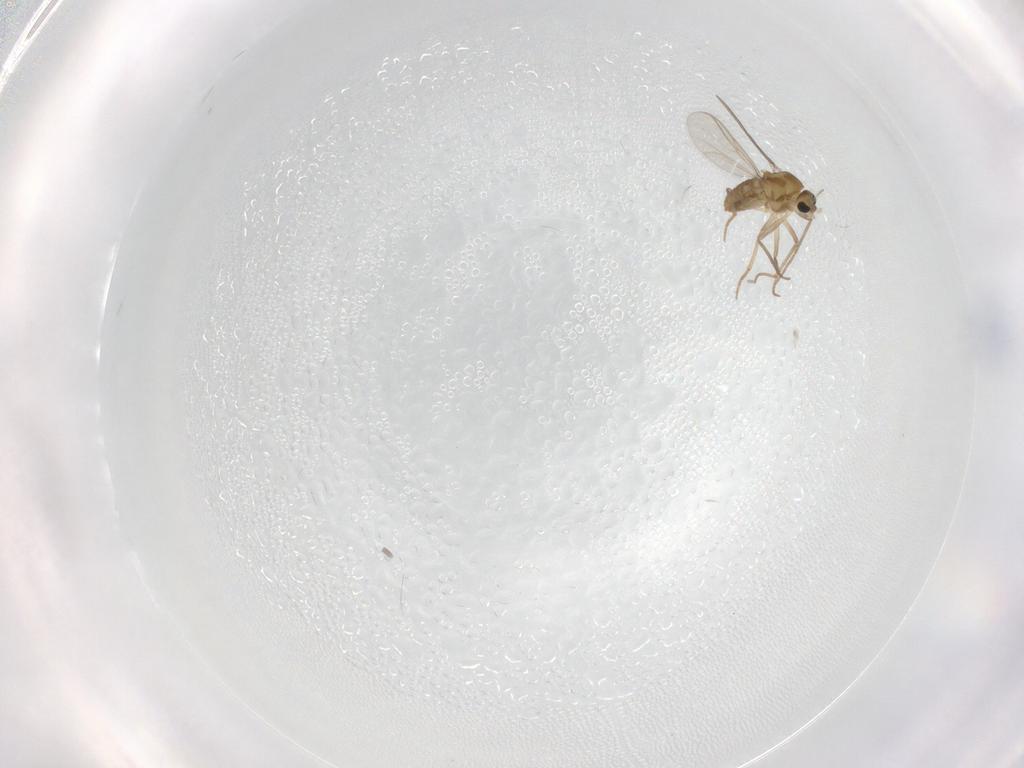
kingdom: Animalia
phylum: Arthropoda
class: Insecta
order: Diptera
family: Chironomidae
